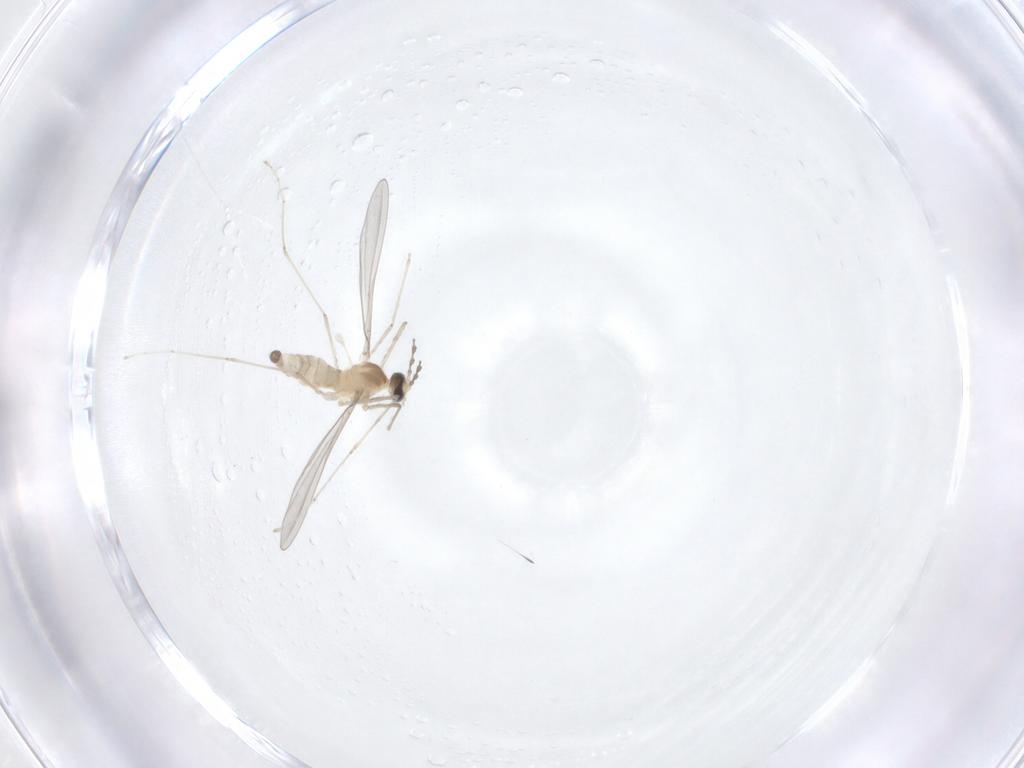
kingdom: Animalia
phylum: Arthropoda
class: Insecta
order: Diptera
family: Cecidomyiidae
